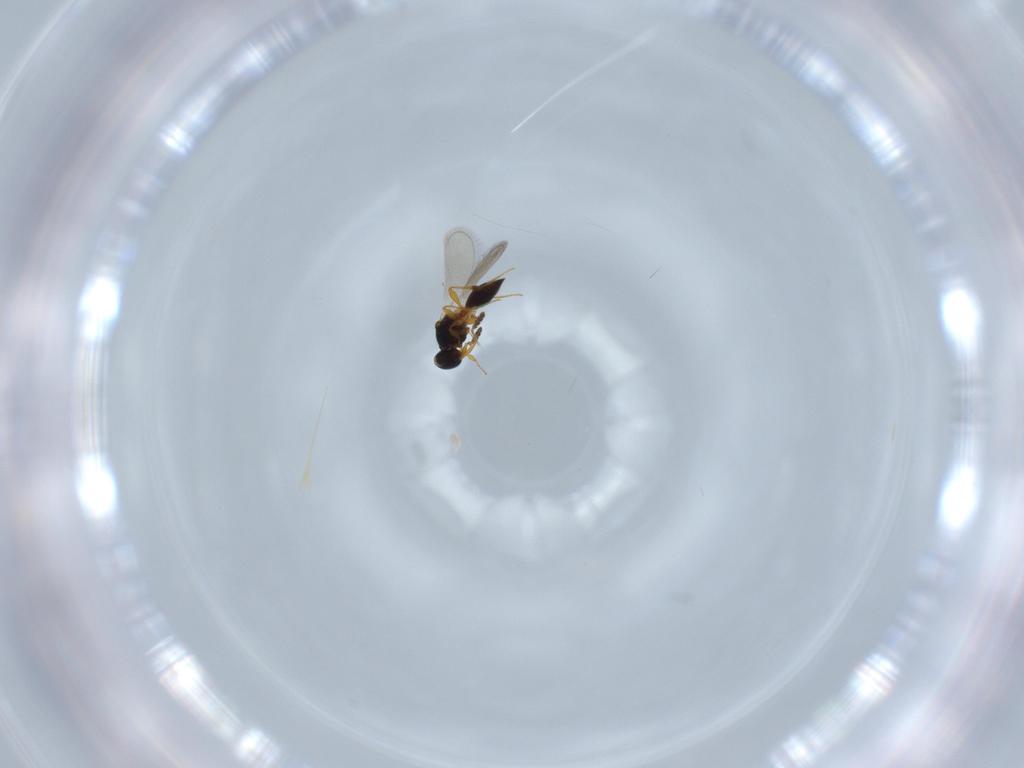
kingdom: Animalia
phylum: Arthropoda
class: Insecta
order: Hymenoptera
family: Platygastridae
